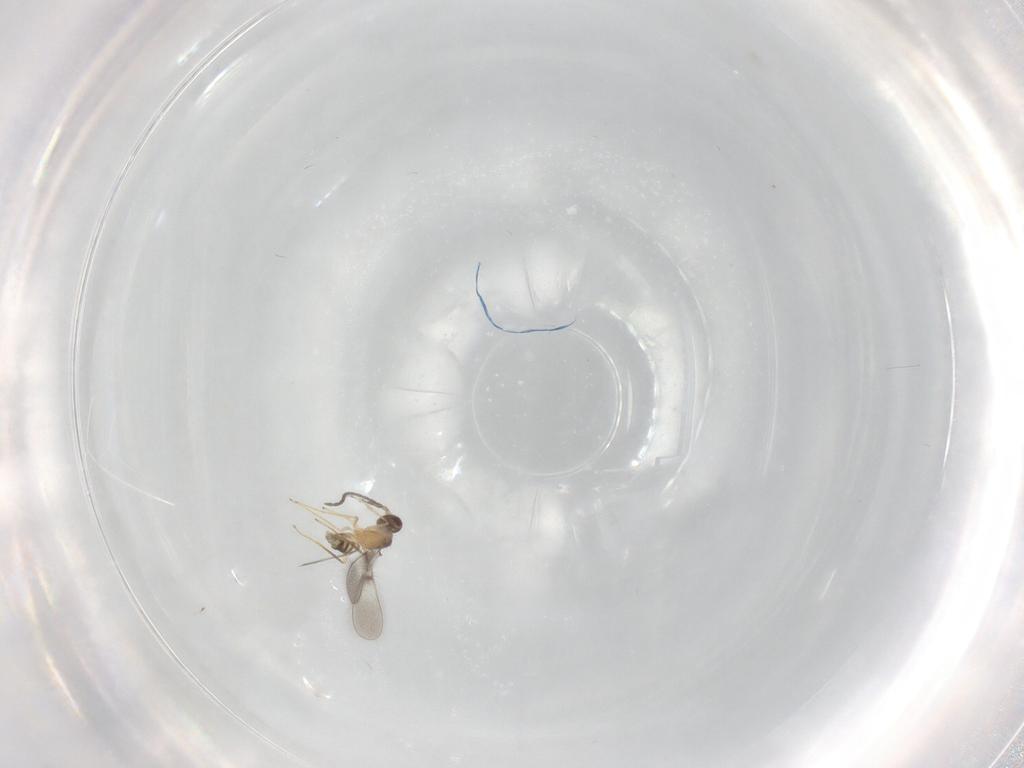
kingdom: Animalia
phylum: Arthropoda
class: Insecta
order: Hymenoptera
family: Mymaridae
